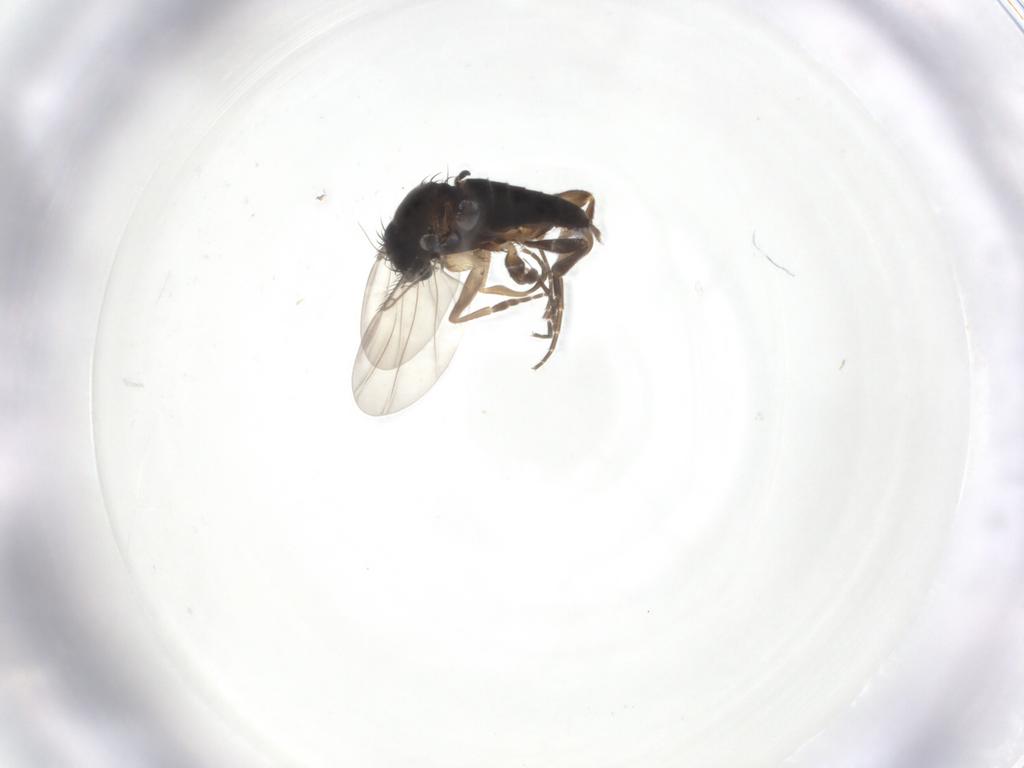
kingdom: Animalia
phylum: Arthropoda
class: Insecta
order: Diptera
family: Phoridae
